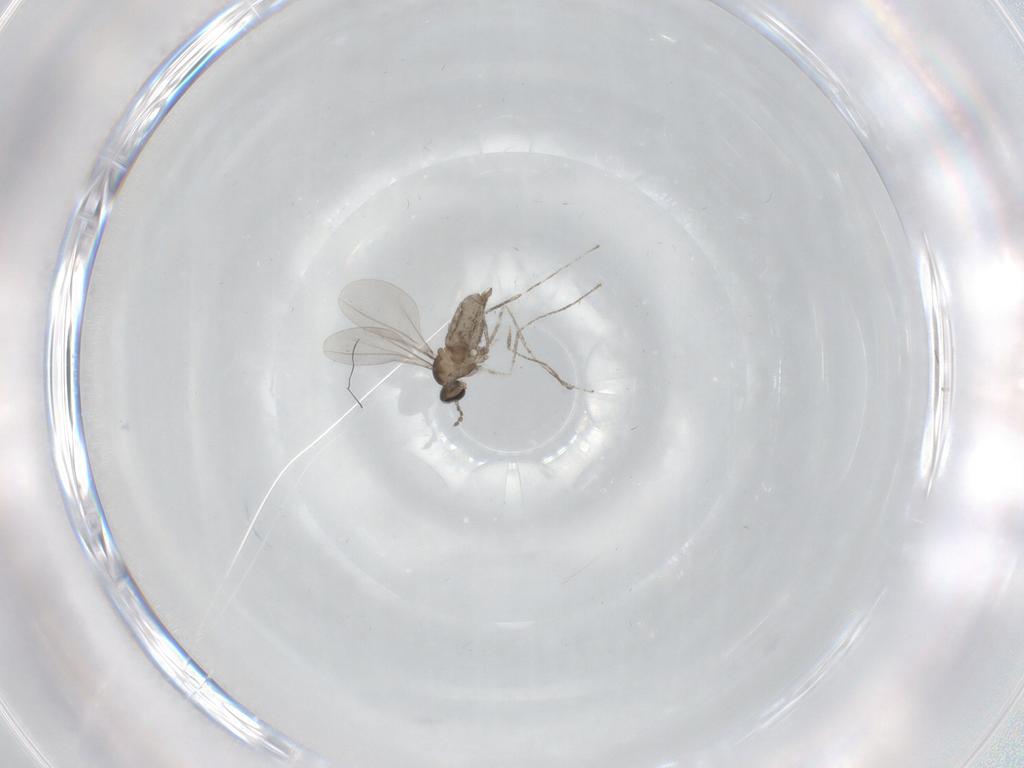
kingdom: Animalia
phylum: Arthropoda
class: Insecta
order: Diptera
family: Cecidomyiidae
